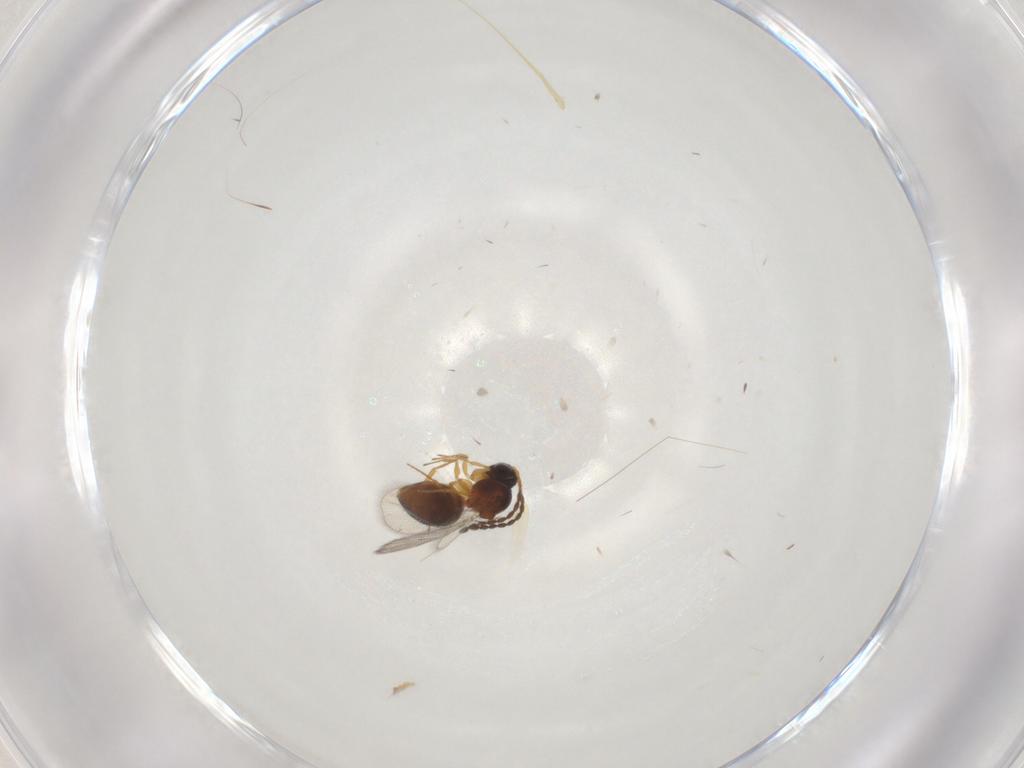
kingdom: Animalia
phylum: Arthropoda
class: Insecta
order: Hymenoptera
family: Figitidae
